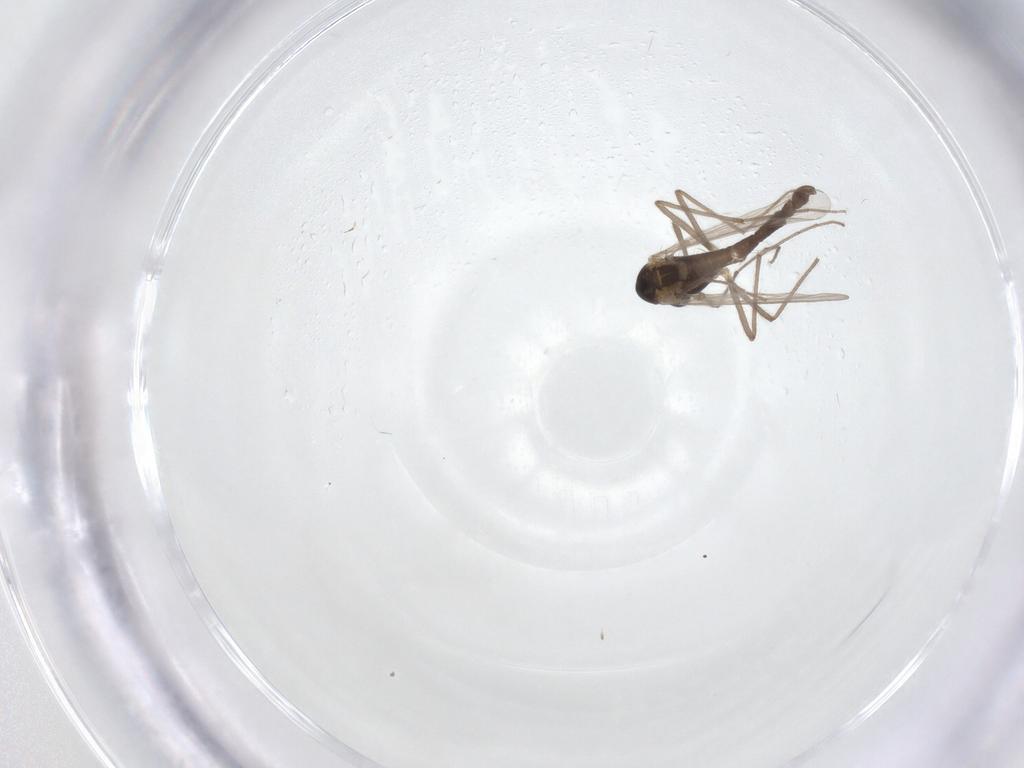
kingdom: Animalia
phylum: Arthropoda
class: Insecta
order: Diptera
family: Chironomidae
